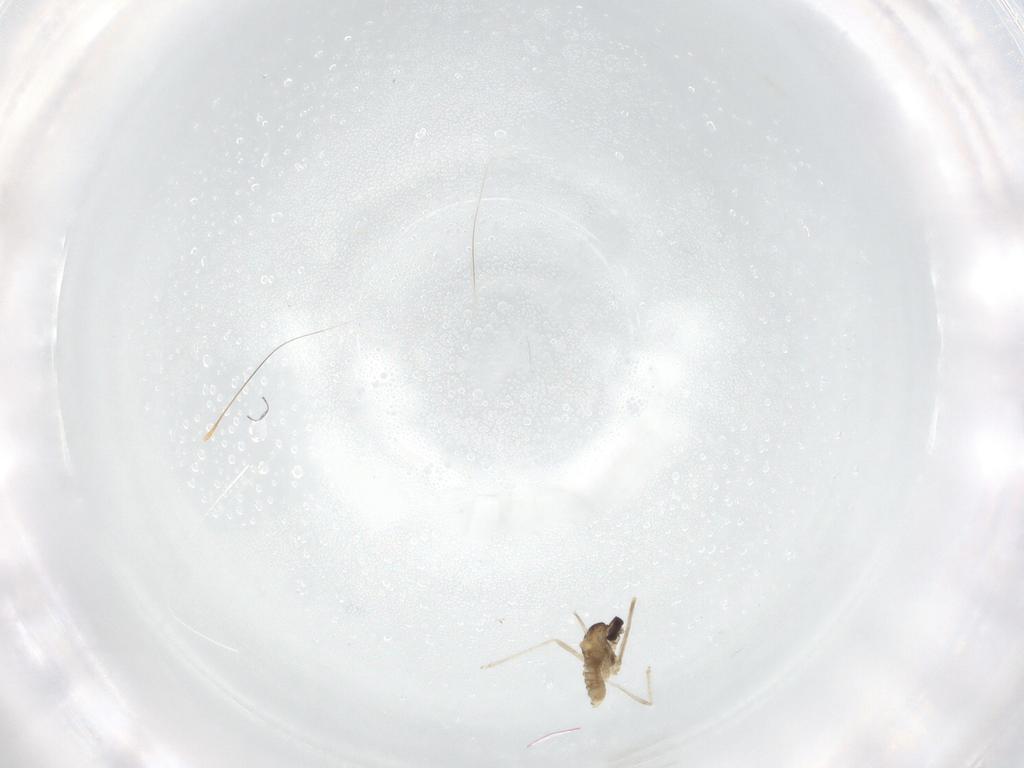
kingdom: Animalia
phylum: Arthropoda
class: Insecta
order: Diptera
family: Cecidomyiidae
